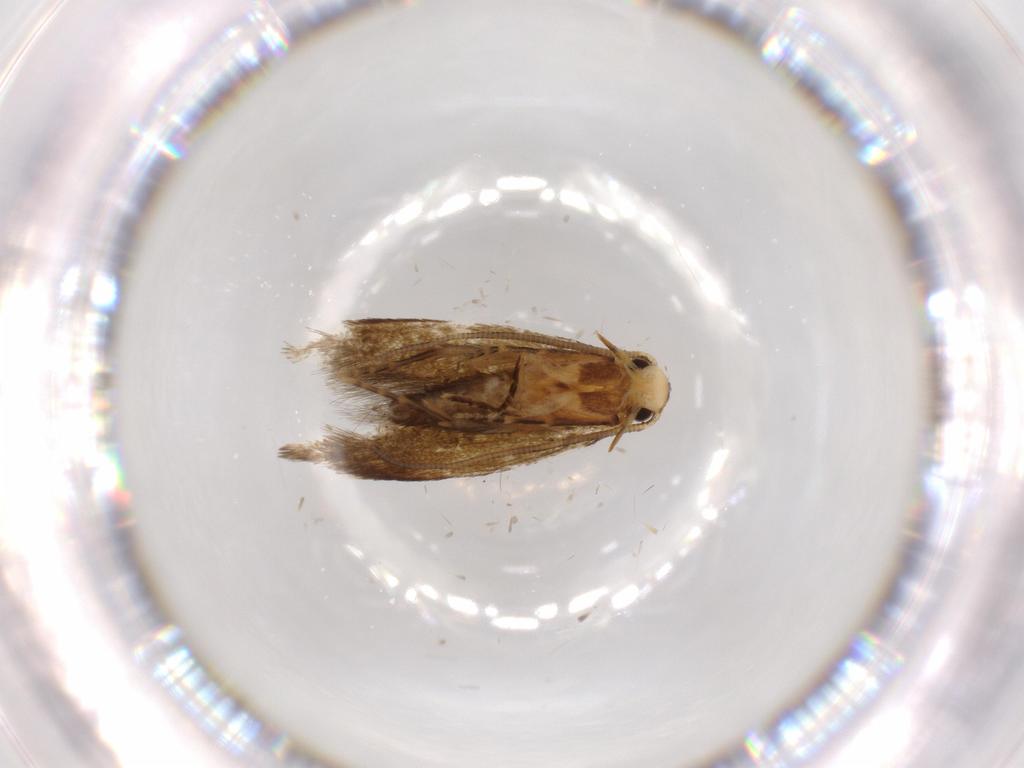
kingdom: Animalia
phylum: Arthropoda
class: Insecta
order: Lepidoptera
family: Tineidae
